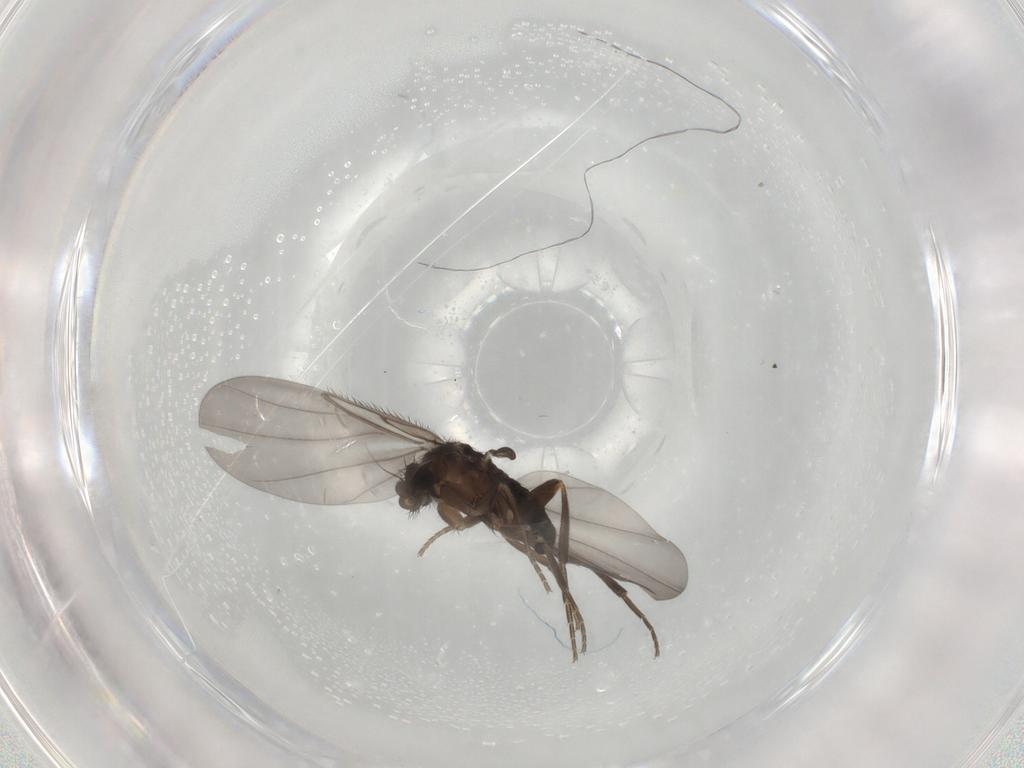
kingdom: Animalia
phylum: Arthropoda
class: Insecta
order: Diptera
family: Phoridae
